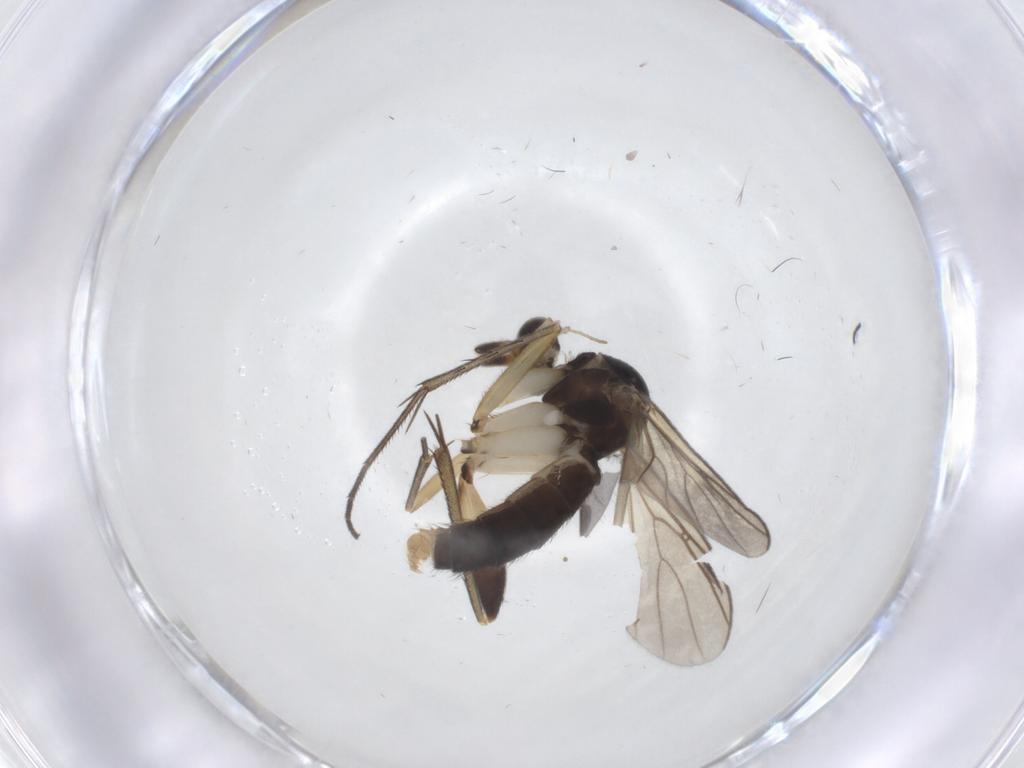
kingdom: Animalia
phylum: Arthropoda
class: Insecta
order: Diptera
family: Mycetophilidae
